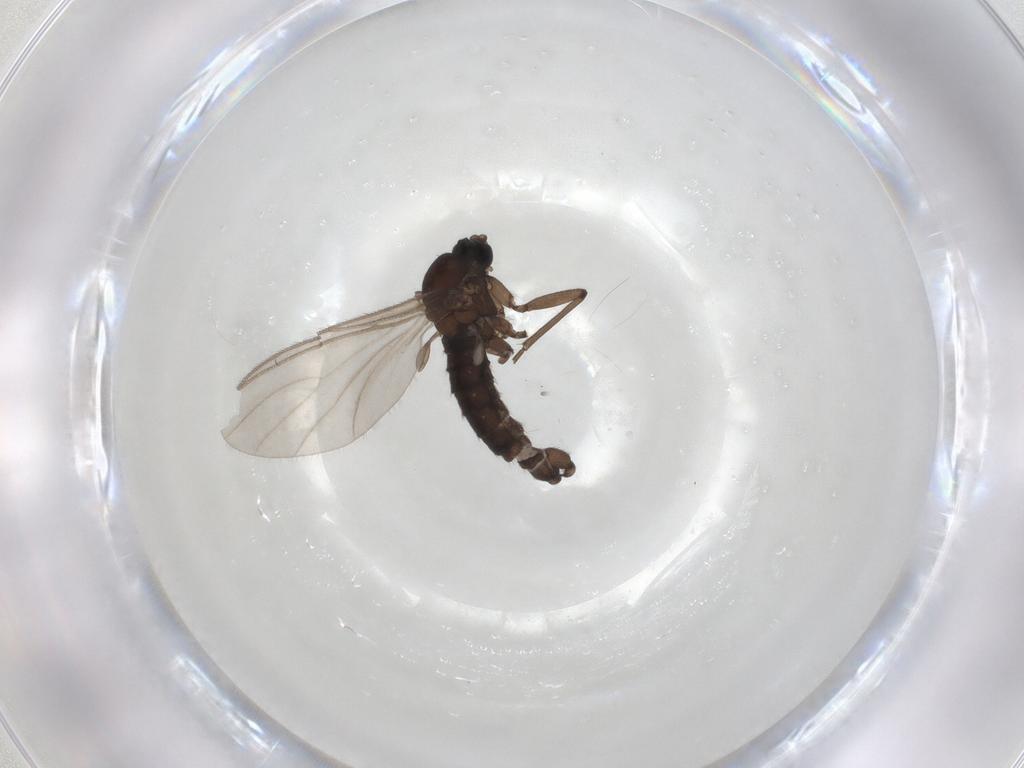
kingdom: Animalia
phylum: Arthropoda
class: Insecta
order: Diptera
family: Sciaridae
